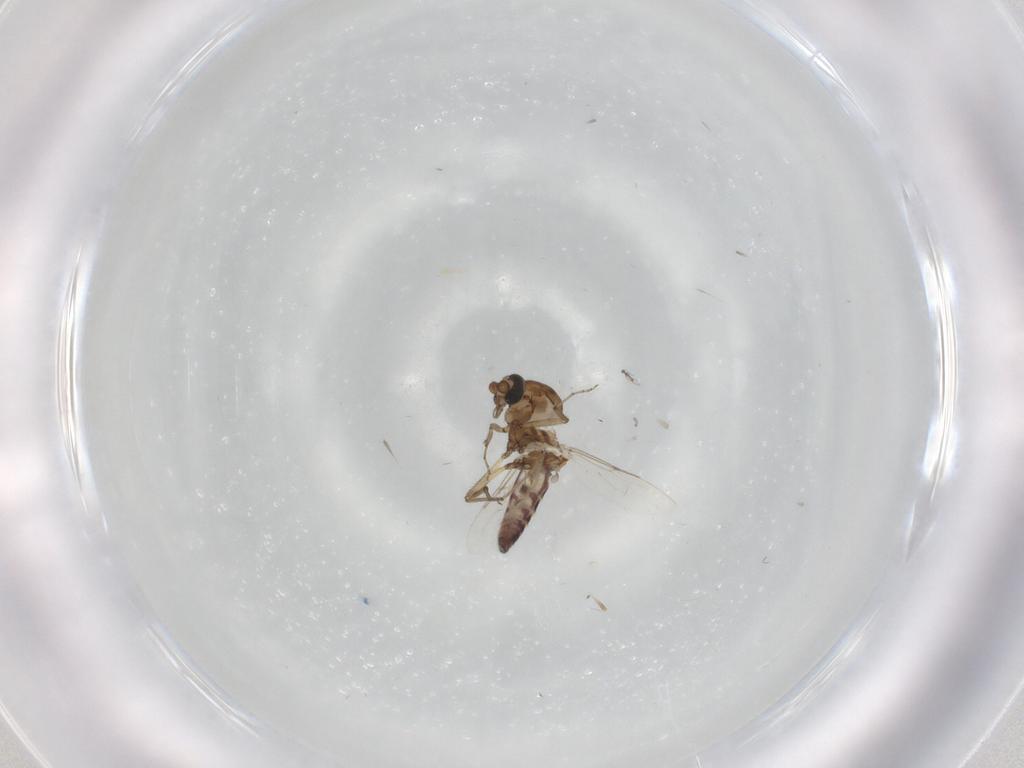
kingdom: Animalia
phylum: Arthropoda
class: Insecta
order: Diptera
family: Ceratopogonidae
